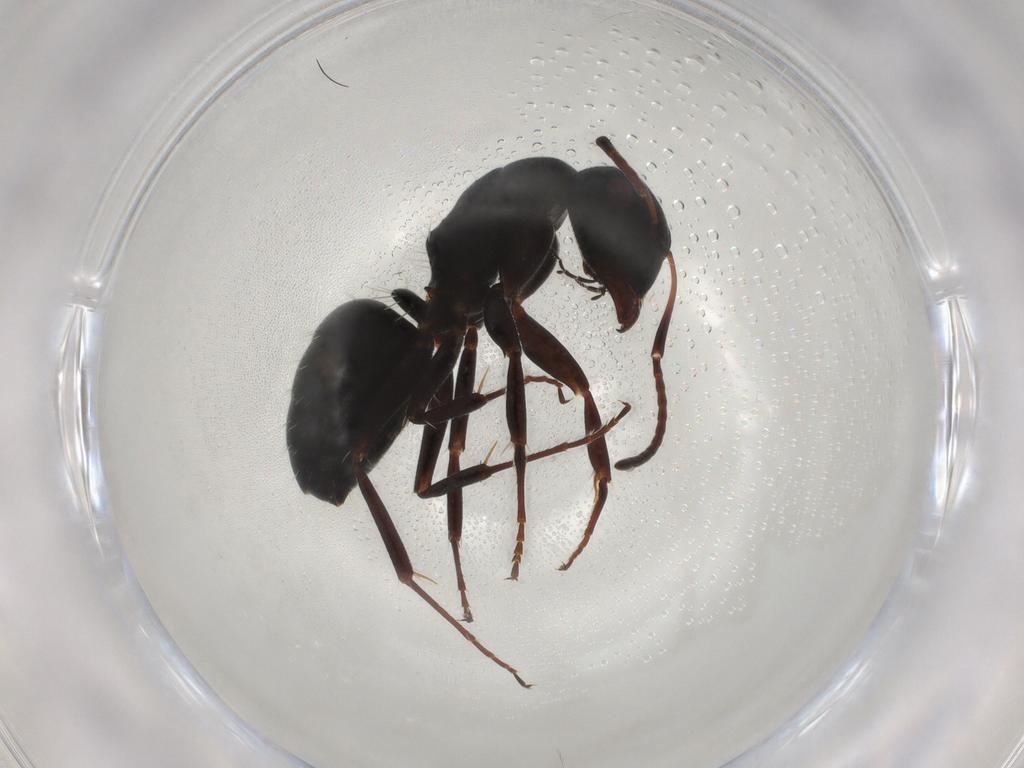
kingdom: Animalia
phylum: Arthropoda
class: Insecta
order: Hymenoptera
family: Formicidae
